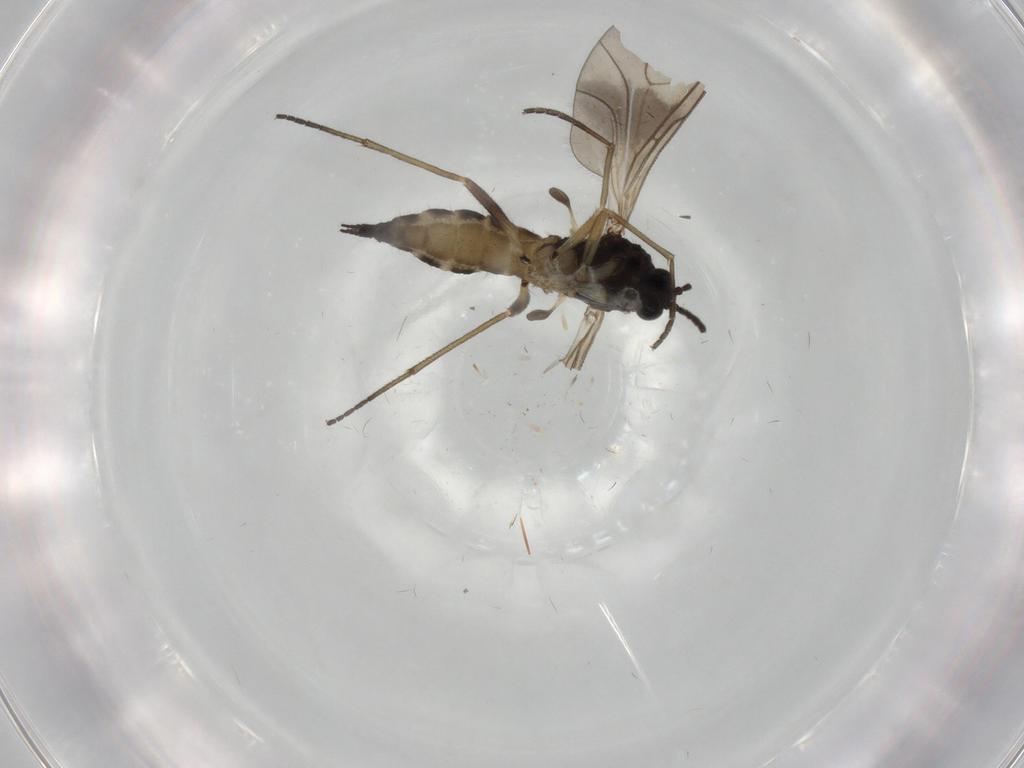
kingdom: Animalia
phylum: Arthropoda
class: Insecta
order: Diptera
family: Sciaridae
